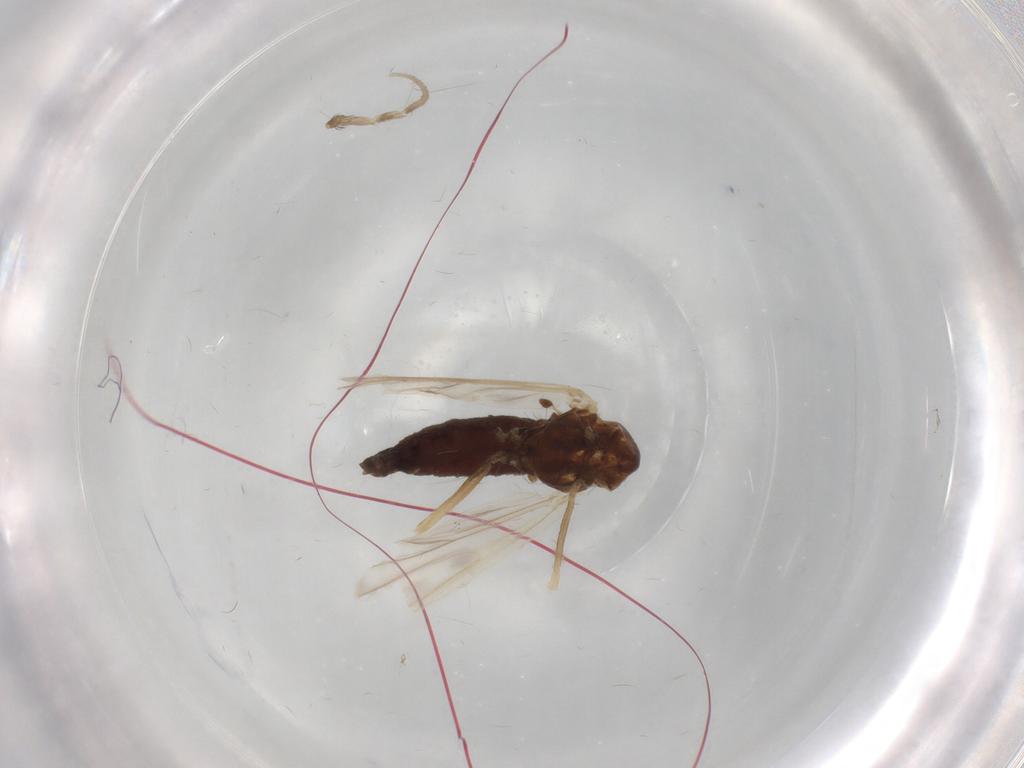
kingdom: Animalia
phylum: Arthropoda
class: Insecta
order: Diptera
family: Chironomidae
